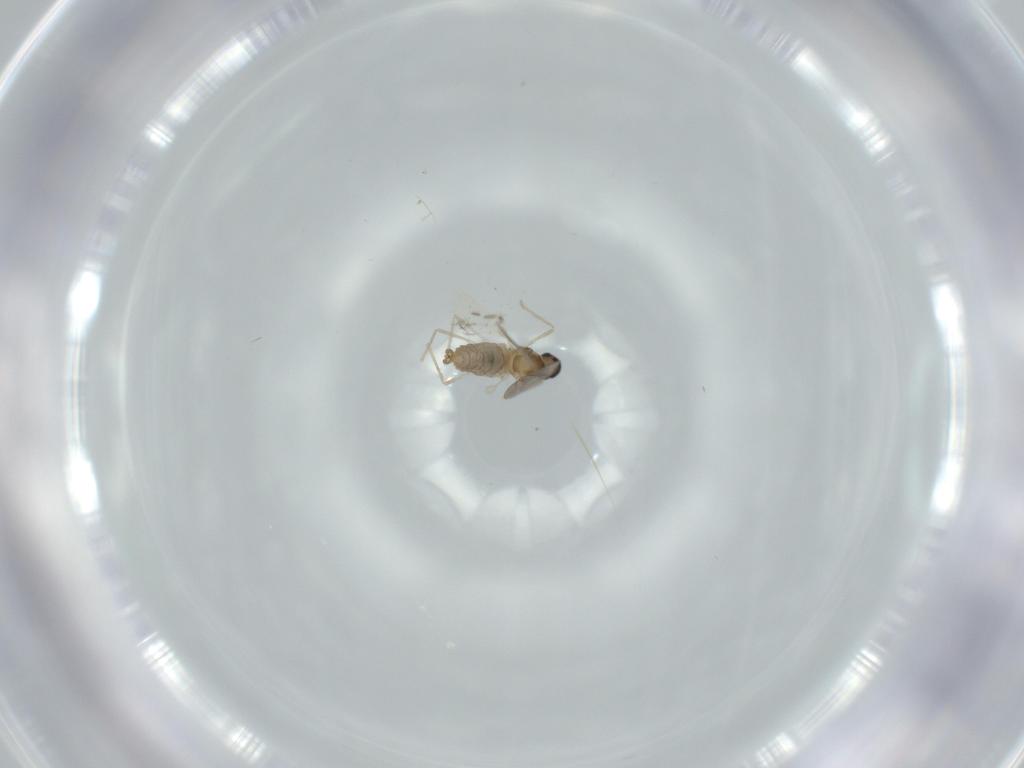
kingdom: Animalia
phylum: Arthropoda
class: Insecta
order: Diptera
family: Cecidomyiidae
